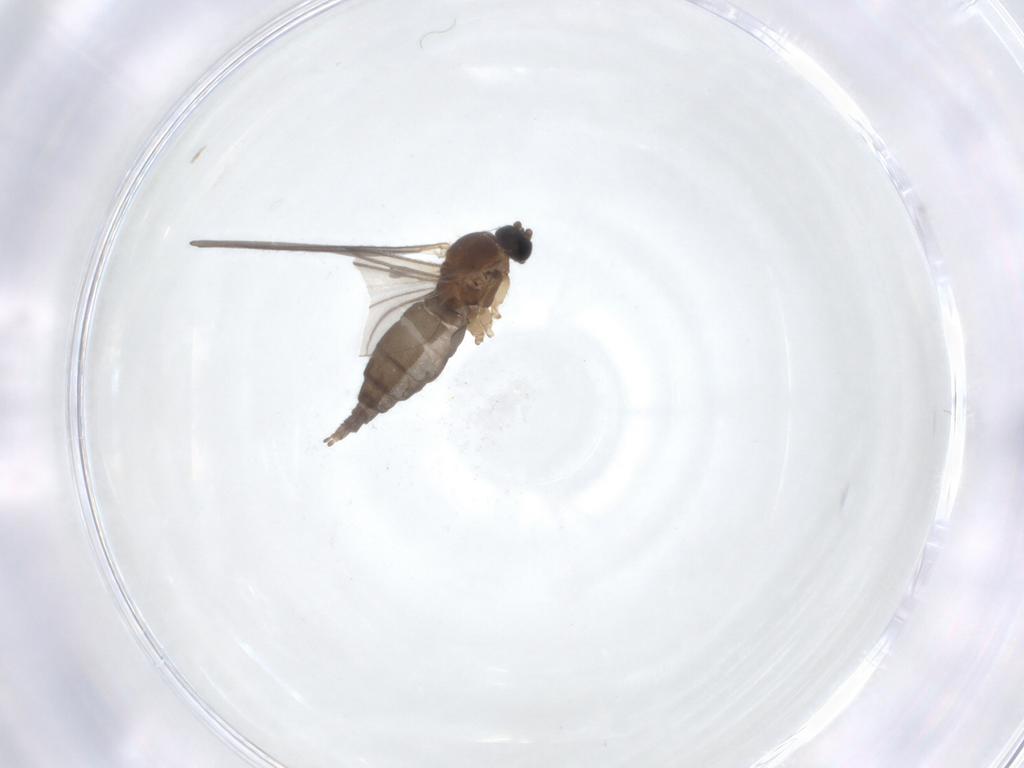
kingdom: Animalia
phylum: Arthropoda
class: Insecta
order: Diptera
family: Sciaridae
